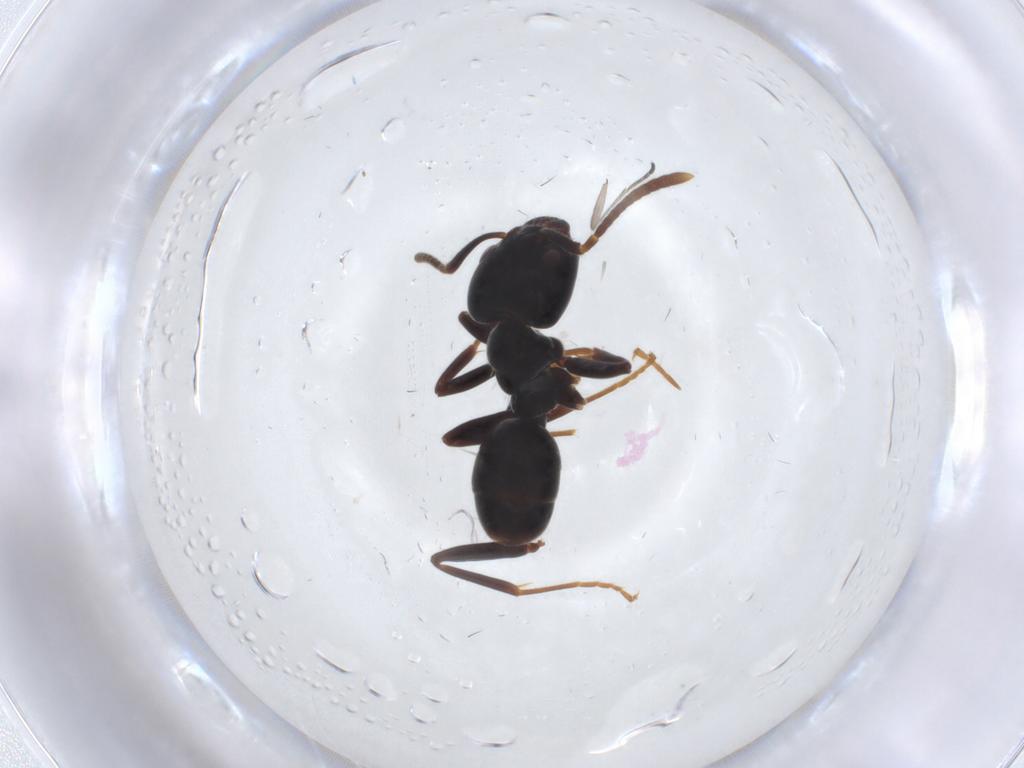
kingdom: Animalia
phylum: Arthropoda
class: Insecta
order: Hymenoptera
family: Formicidae
